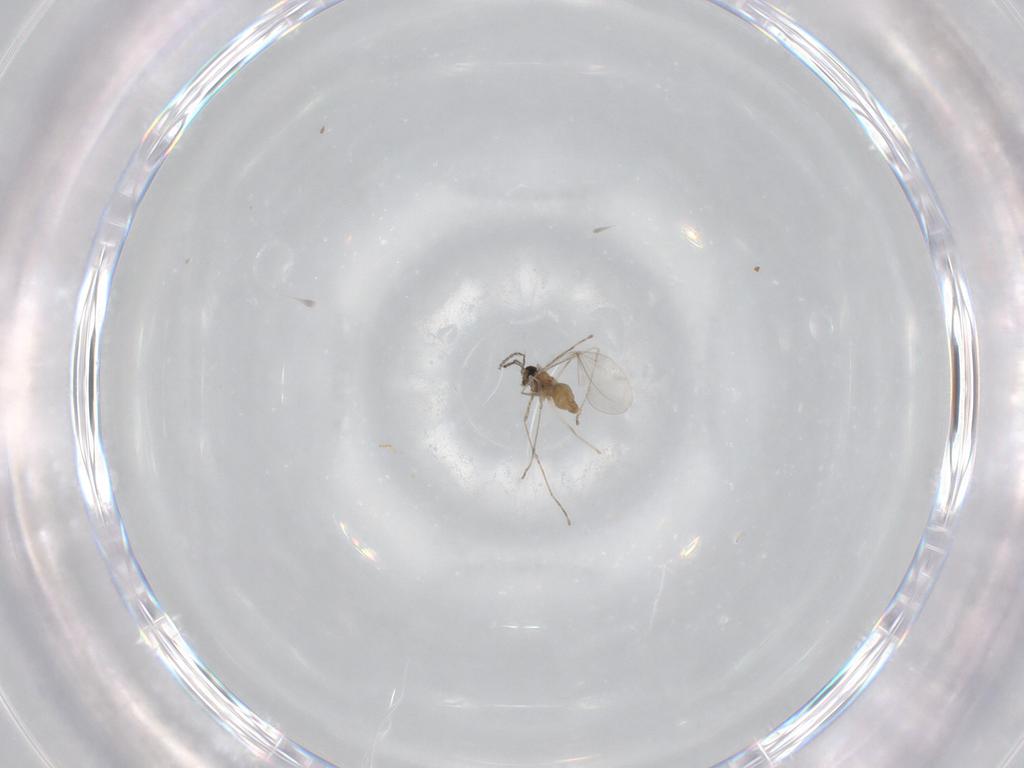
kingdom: Animalia
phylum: Arthropoda
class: Insecta
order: Diptera
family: Cecidomyiidae
